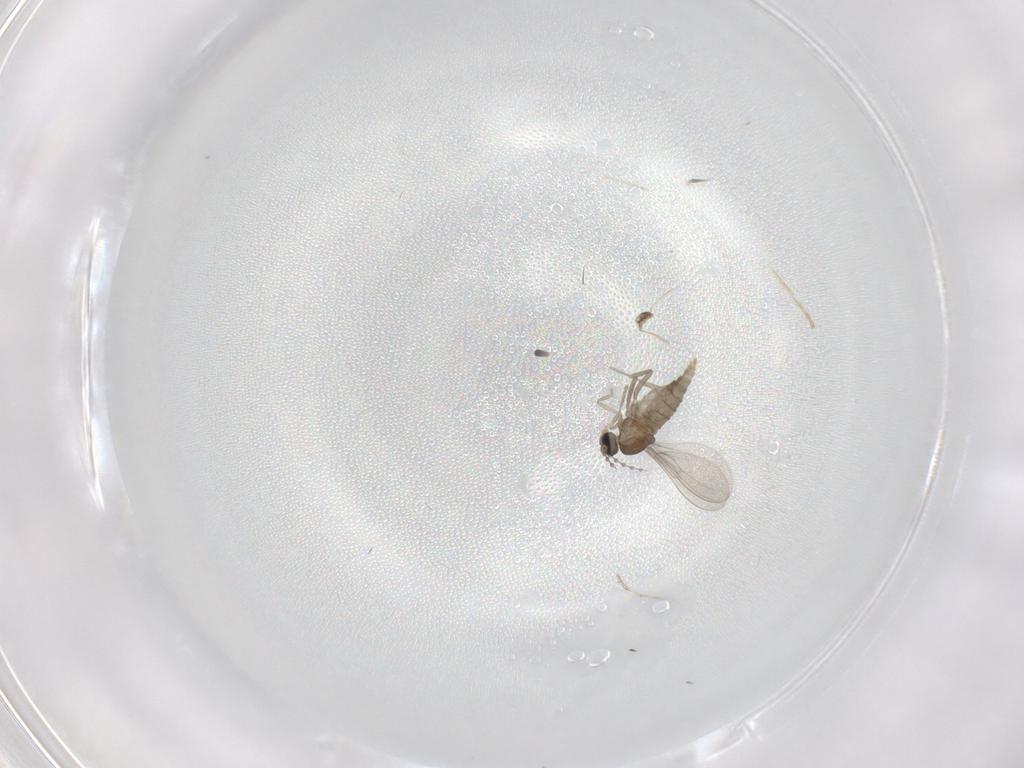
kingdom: Animalia
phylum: Arthropoda
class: Insecta
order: Diptera
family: Cecidomyiidae
